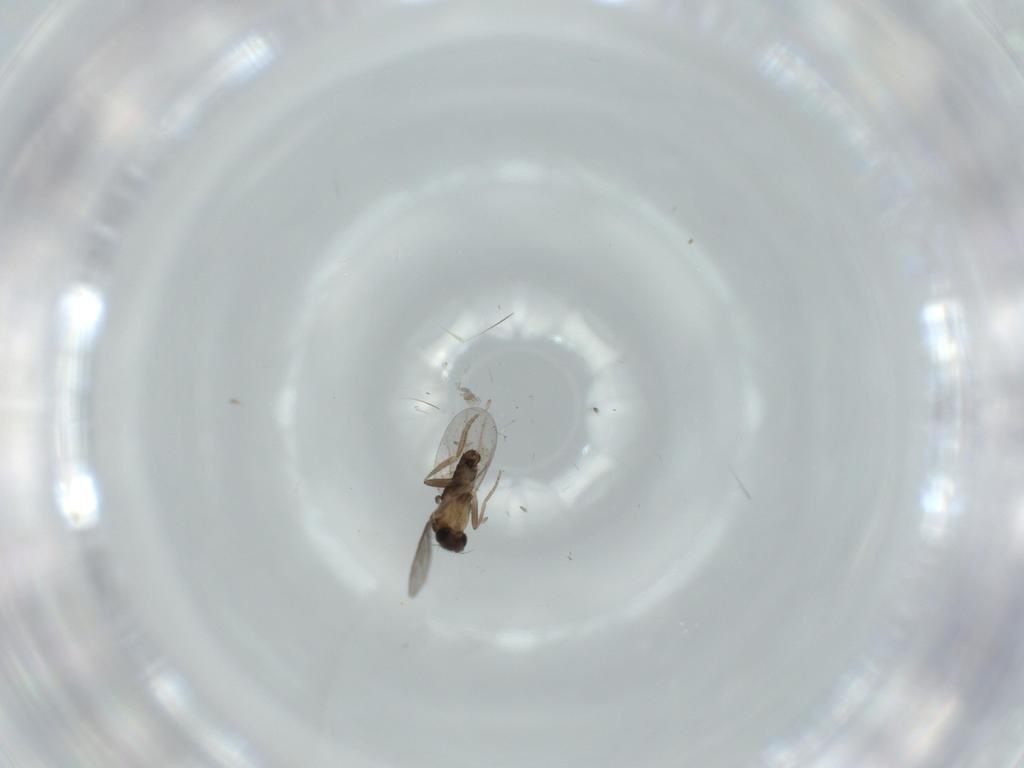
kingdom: Animalia
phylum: Arthropoda
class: Insecta
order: Diptera
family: Cecidomyiidae
